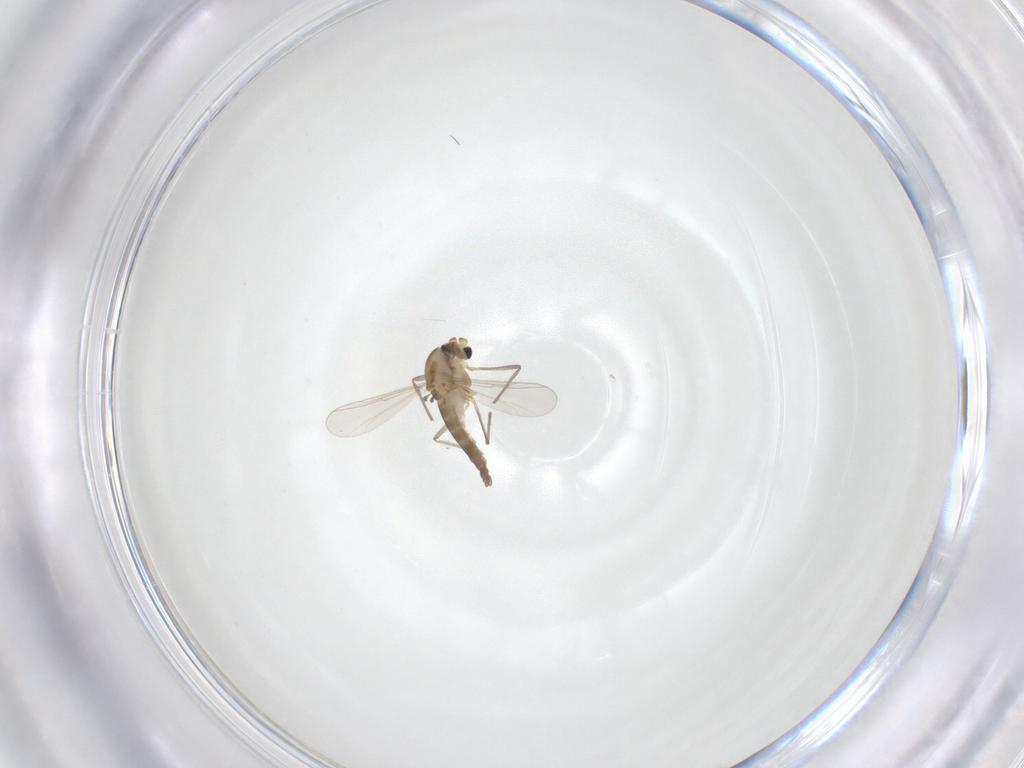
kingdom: Animalia
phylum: Arthropoda
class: Insecta
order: Diptera
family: Chironomidae
